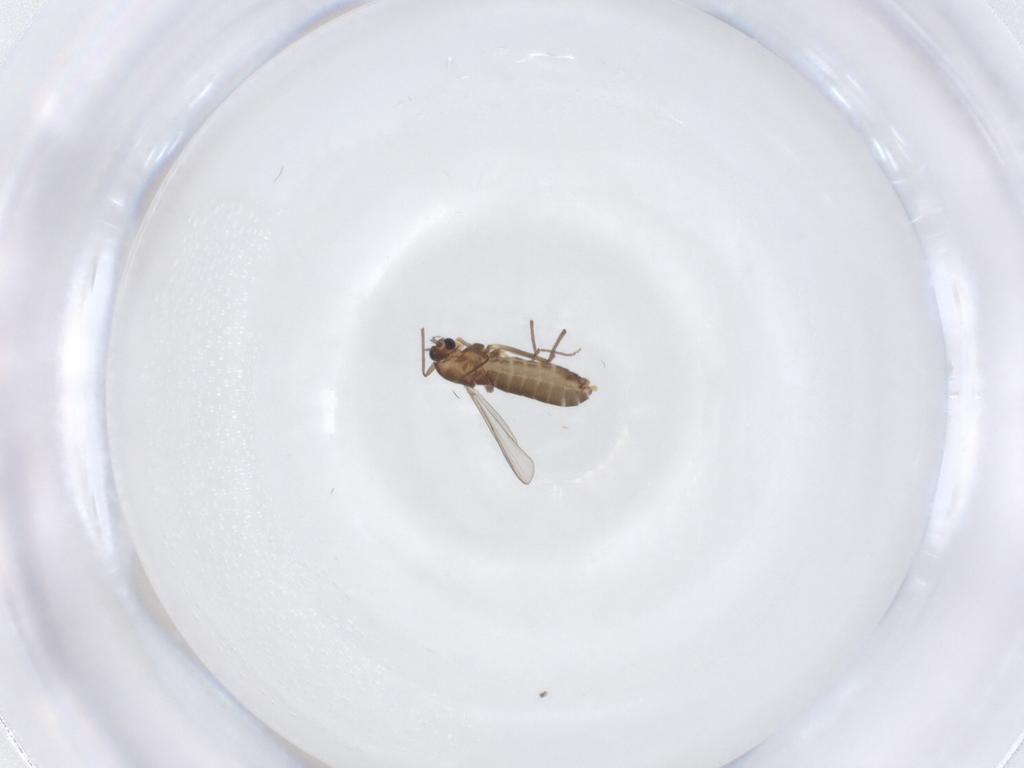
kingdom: Animalia
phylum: Arthropoda
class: Insecta
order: Diptera
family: Chironomidae
